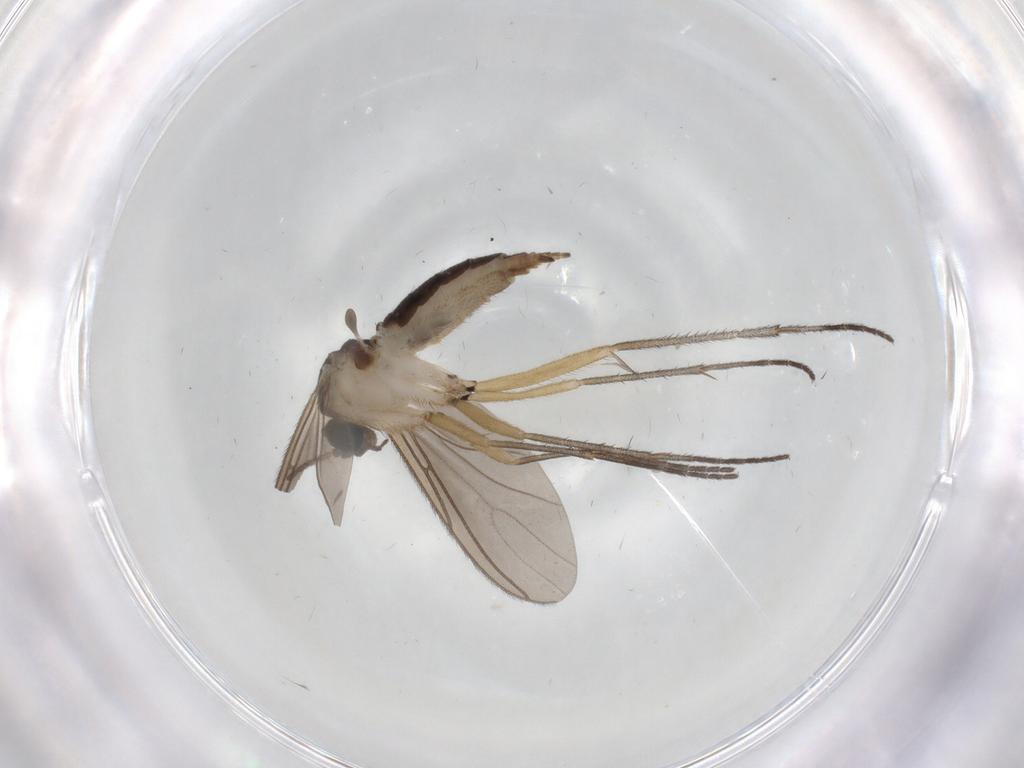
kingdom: Animalia
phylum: Arthropoda
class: Insecta
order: Diptera
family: Sciaridae
